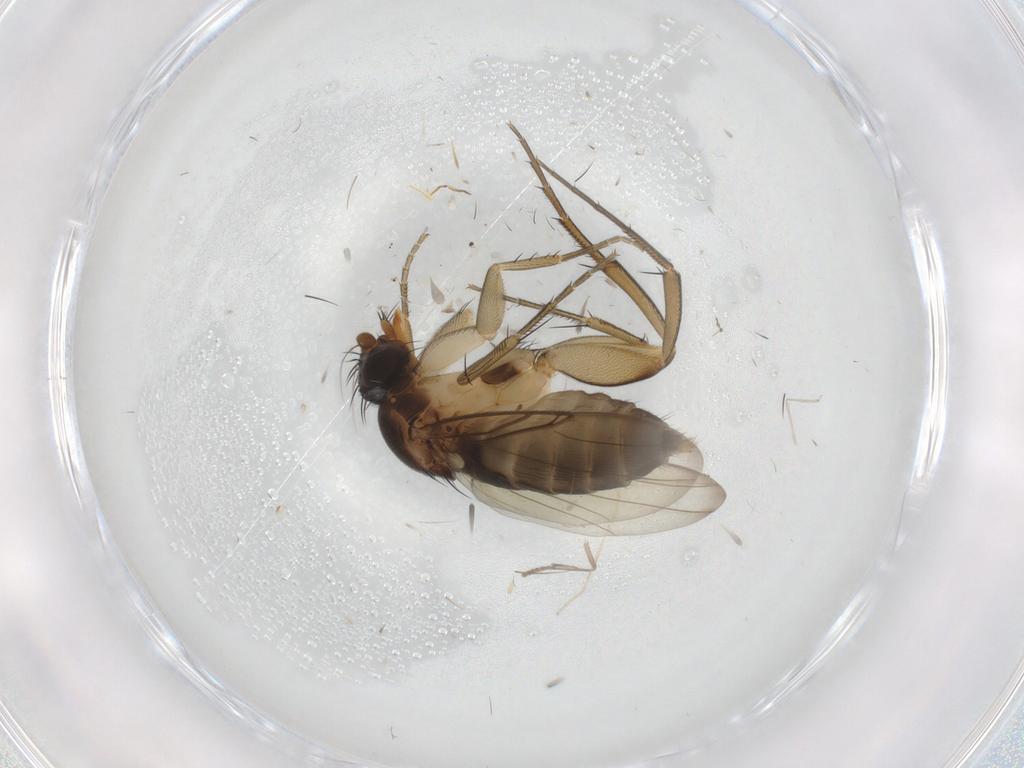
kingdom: Animalia
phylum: Arthropoda
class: Insecta
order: Diptera
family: Phoridae
